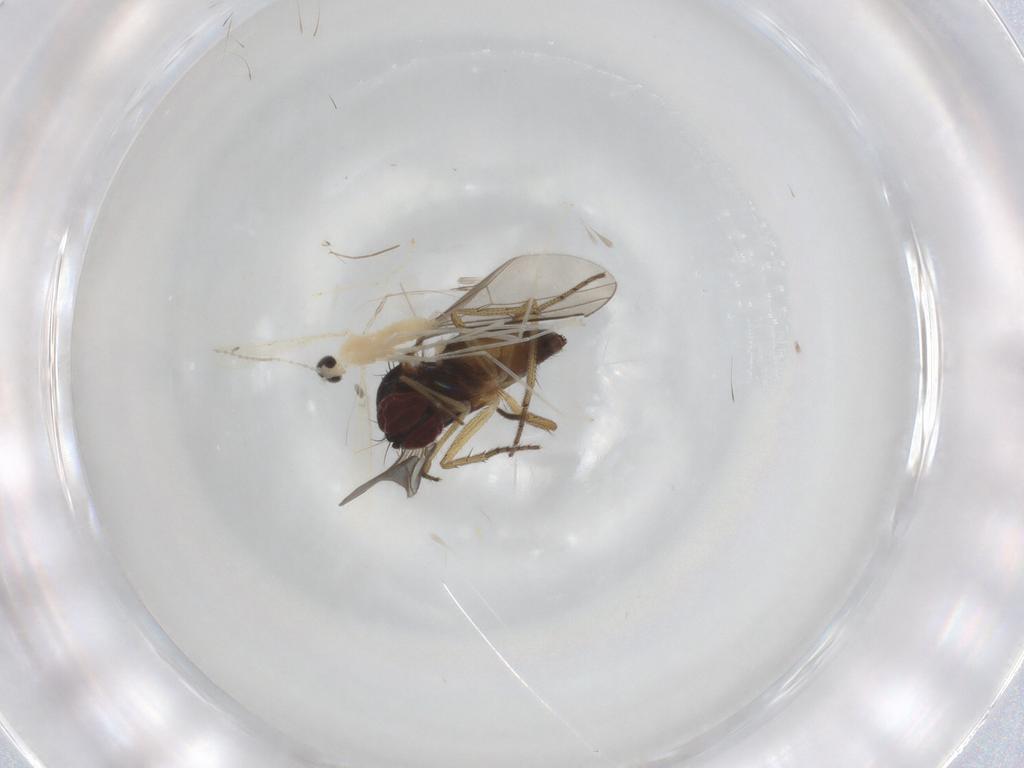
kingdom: Animalia
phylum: Arthropoda
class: Insecta
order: Diptera
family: Dolichopodidae
